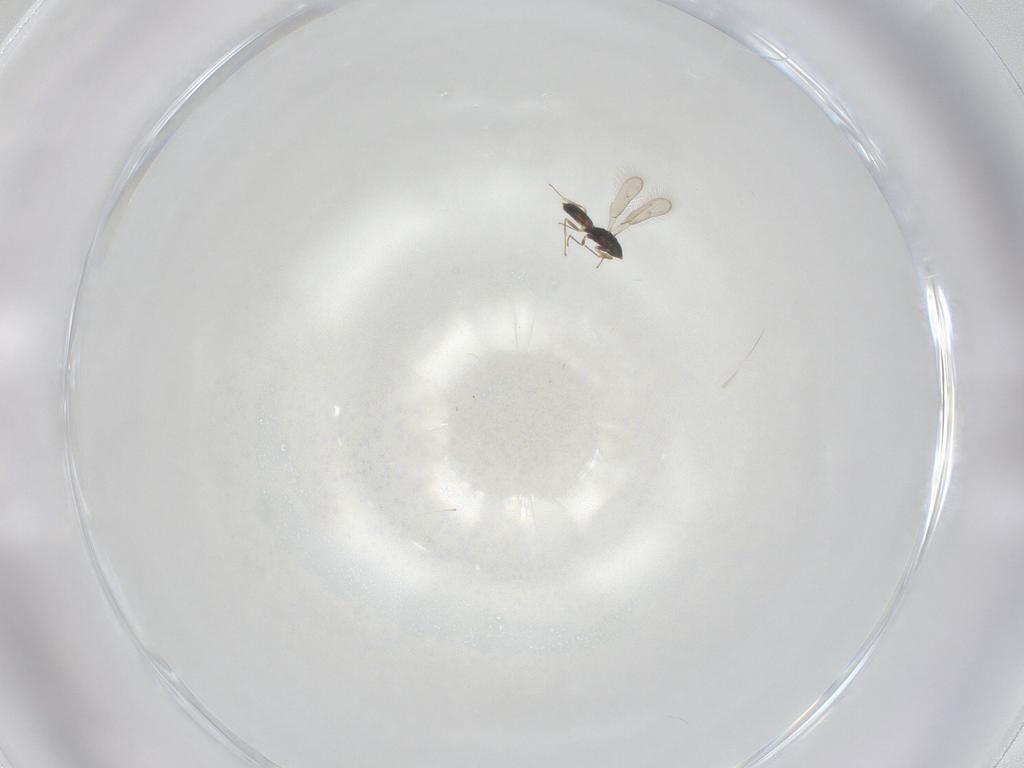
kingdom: Animalia
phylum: Arthropoda
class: Insecta
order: Hymenoptera
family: Pteromalidae
